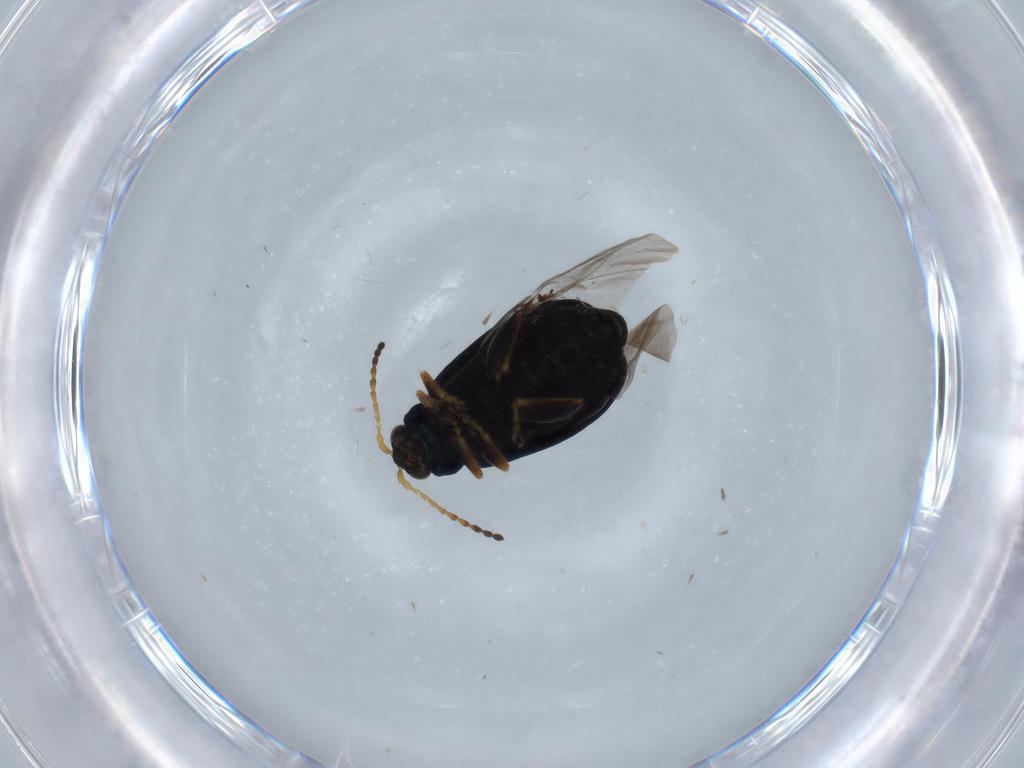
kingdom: Animalia
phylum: Arthropoda
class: Insecta
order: Coleoptera
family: Chrysomelidae
